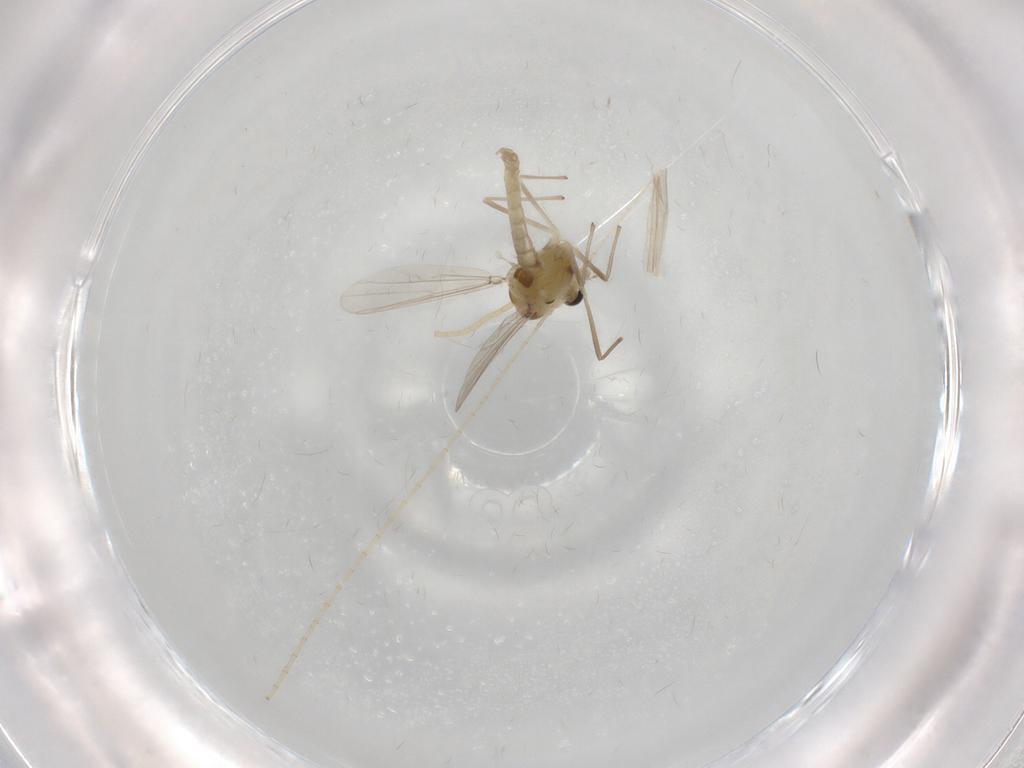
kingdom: Animalia
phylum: Arthropoda
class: Insecta
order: Diptera
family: Chironomidae
